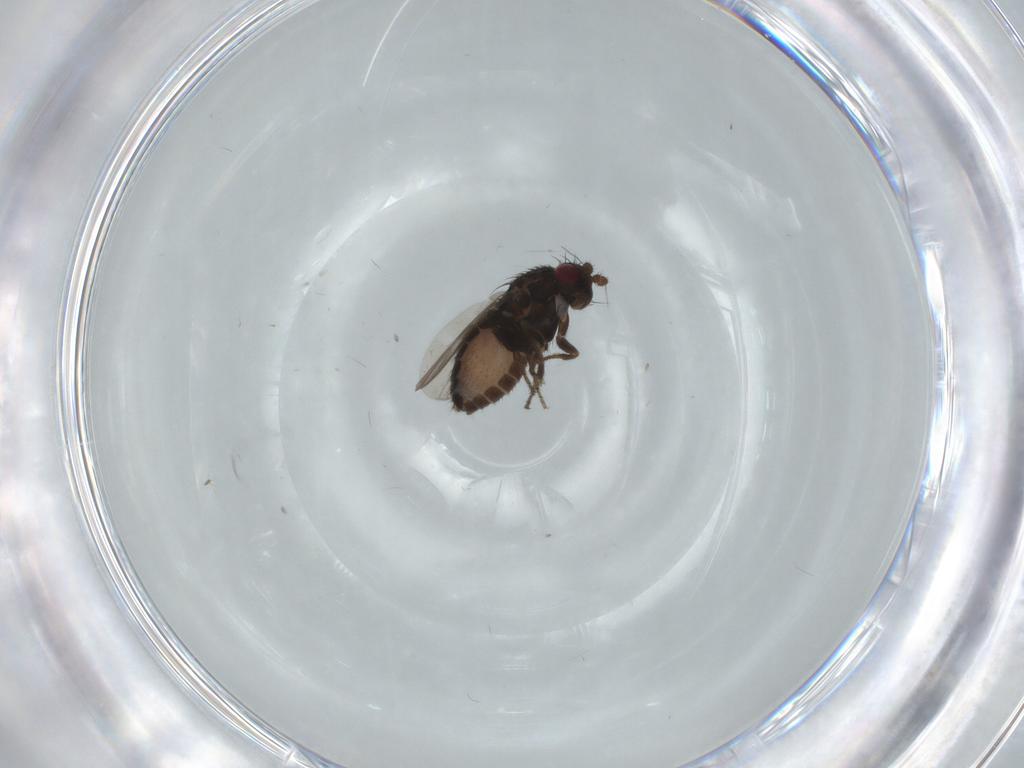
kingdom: Animalia
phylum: Arthropoda
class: Insecta
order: Diptera
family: Sphaeroceridae
